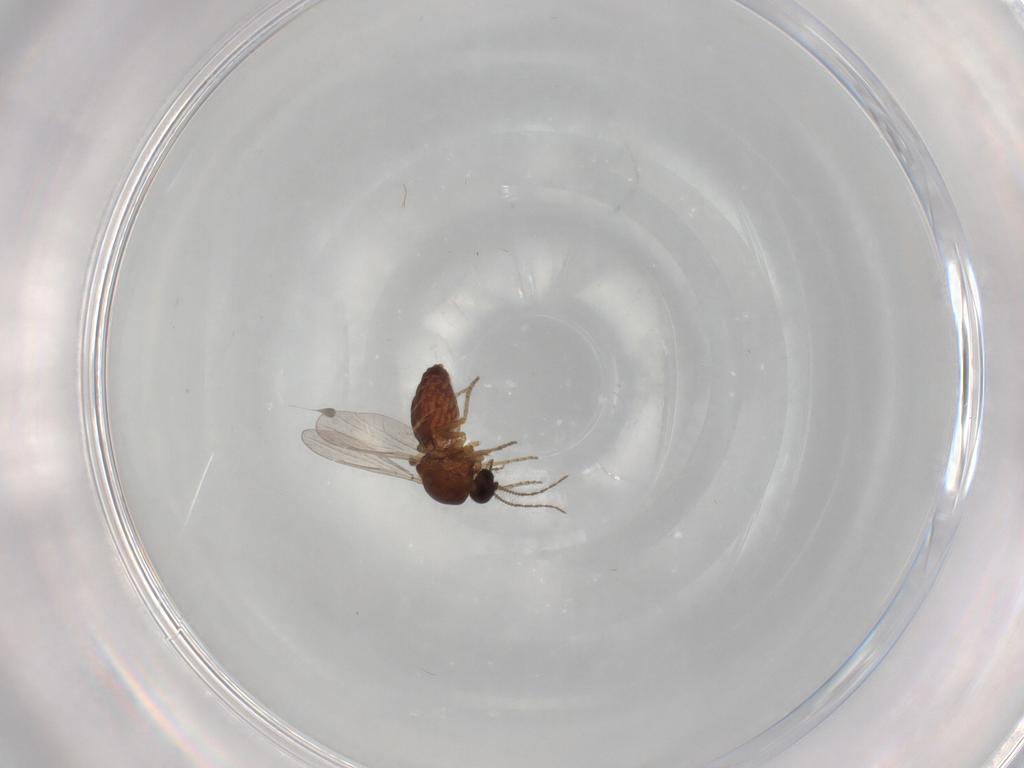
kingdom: Animalia
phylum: Arthropoda
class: Insecta
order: Diptera
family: Ceratopogonidae
